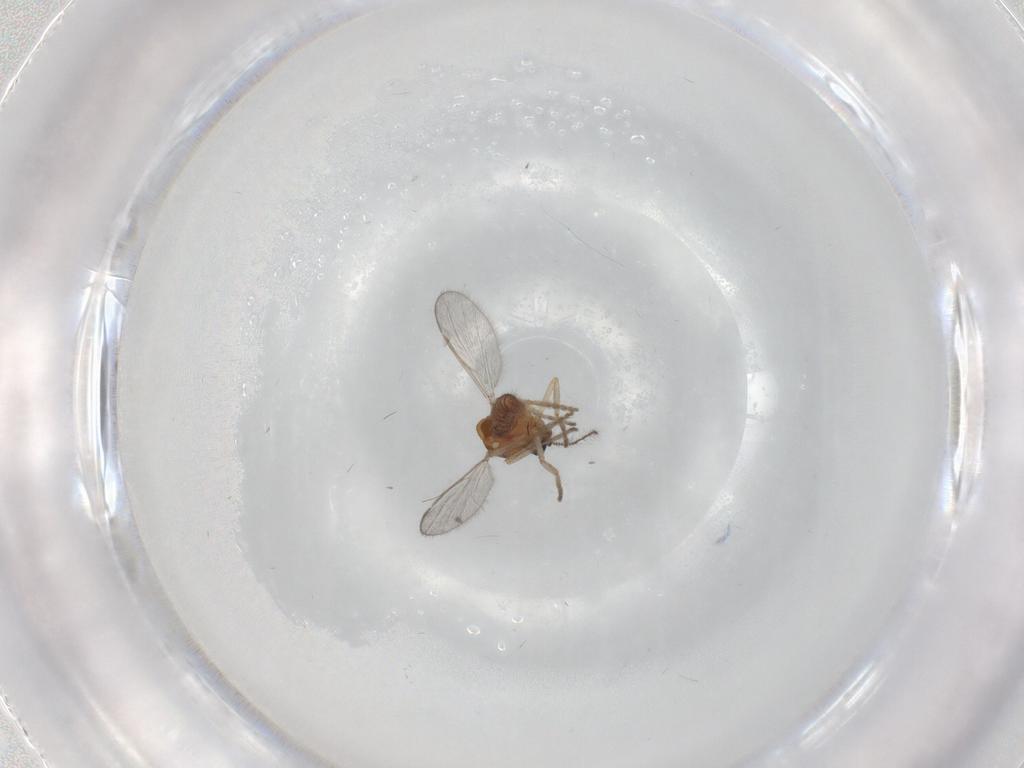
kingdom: Animalia
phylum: Arthropoda
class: Insecta
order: Diptera
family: Ceratopogonidae
